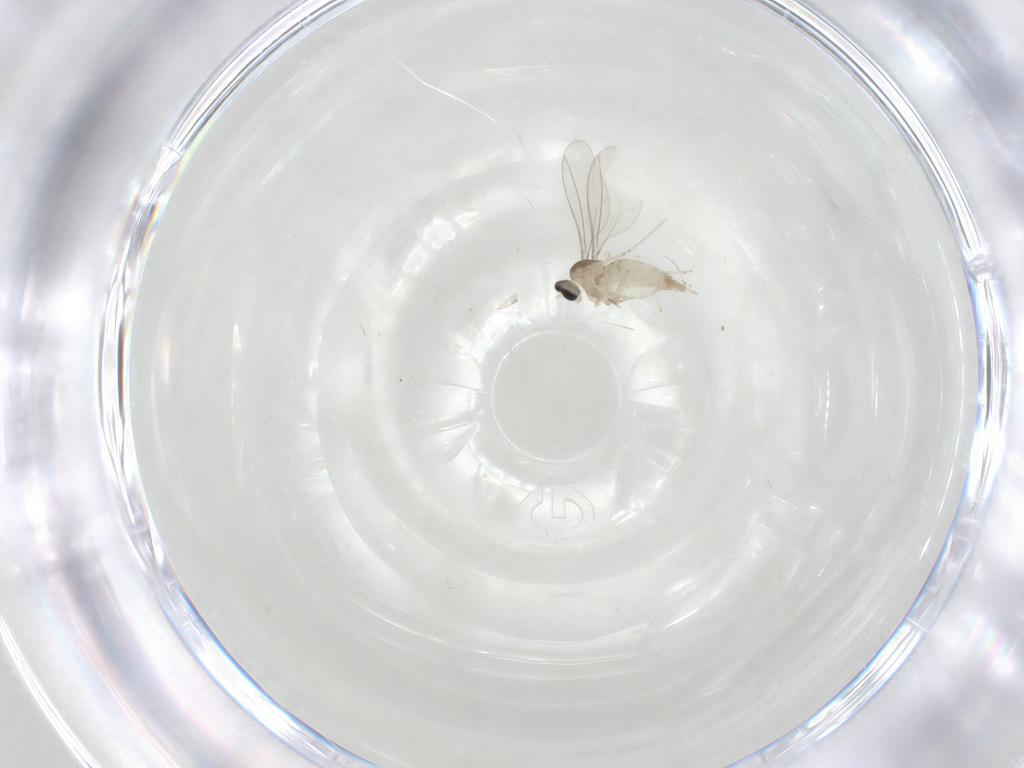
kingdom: Animalia
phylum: Arthropoda
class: Insecta
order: Diptera
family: Cecidomyiidae
